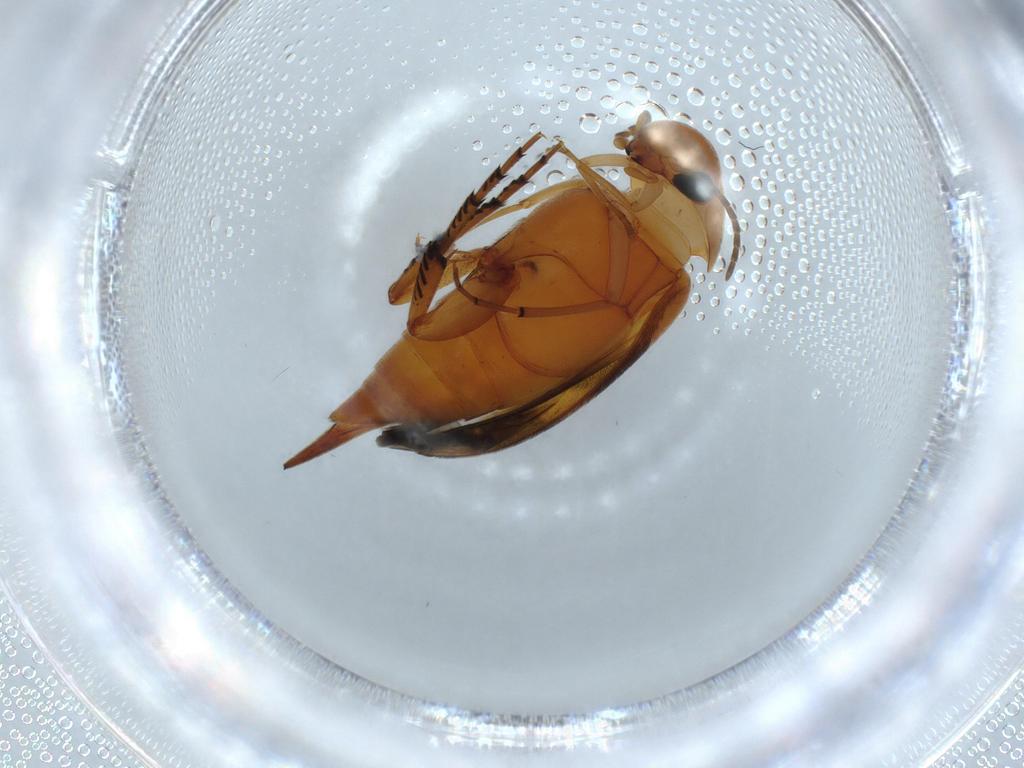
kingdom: Animalia
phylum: Arthropoda
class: Insecta
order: Coleoptera
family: Mordellidae
